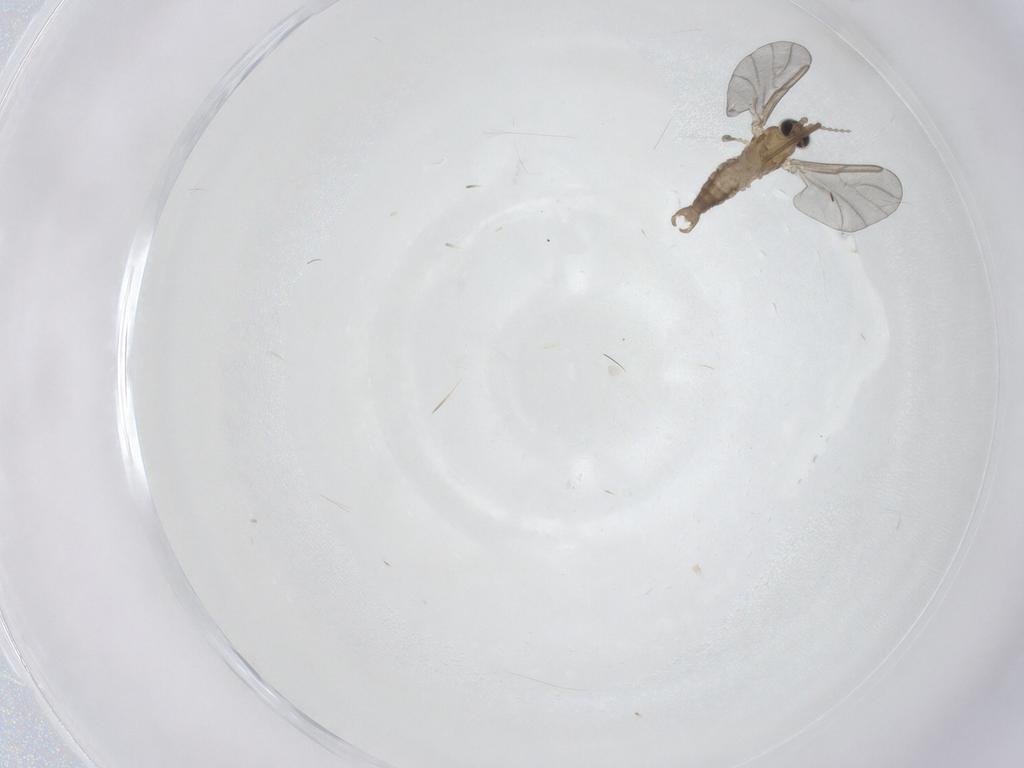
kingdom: Animalia
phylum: Arthropoda
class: Insecta
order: Diptera
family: Cecidomyiidae
